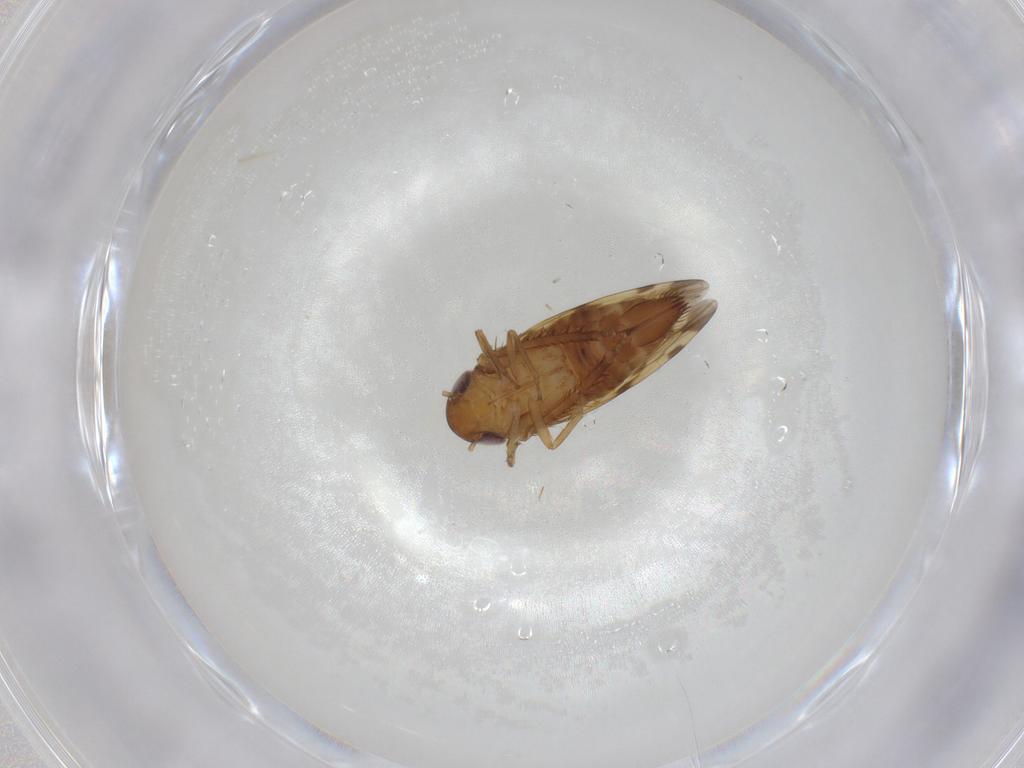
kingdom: Animalia
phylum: Arthropoda
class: Insecta
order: Hemiptera
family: Cicadellidae
